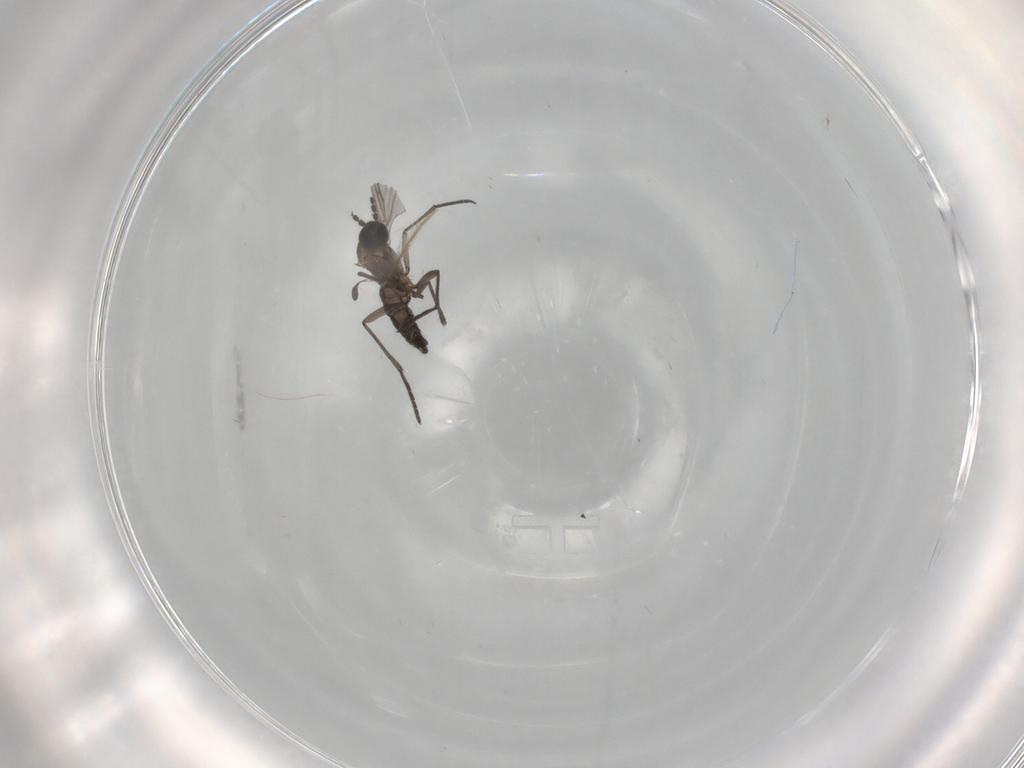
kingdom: Animalia
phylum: Arthropoda
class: Insecta
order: Diptera
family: Chironomidae
